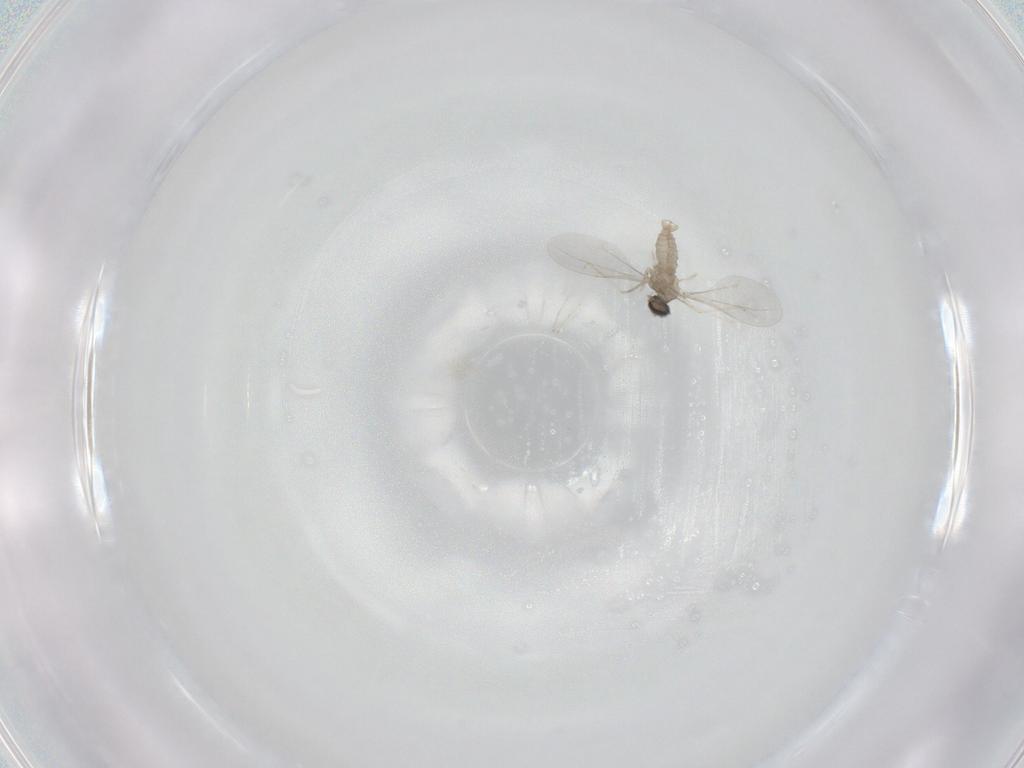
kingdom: Animalia
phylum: Arthropoda
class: Insecta
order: Diptera
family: Cecidomyiidae
